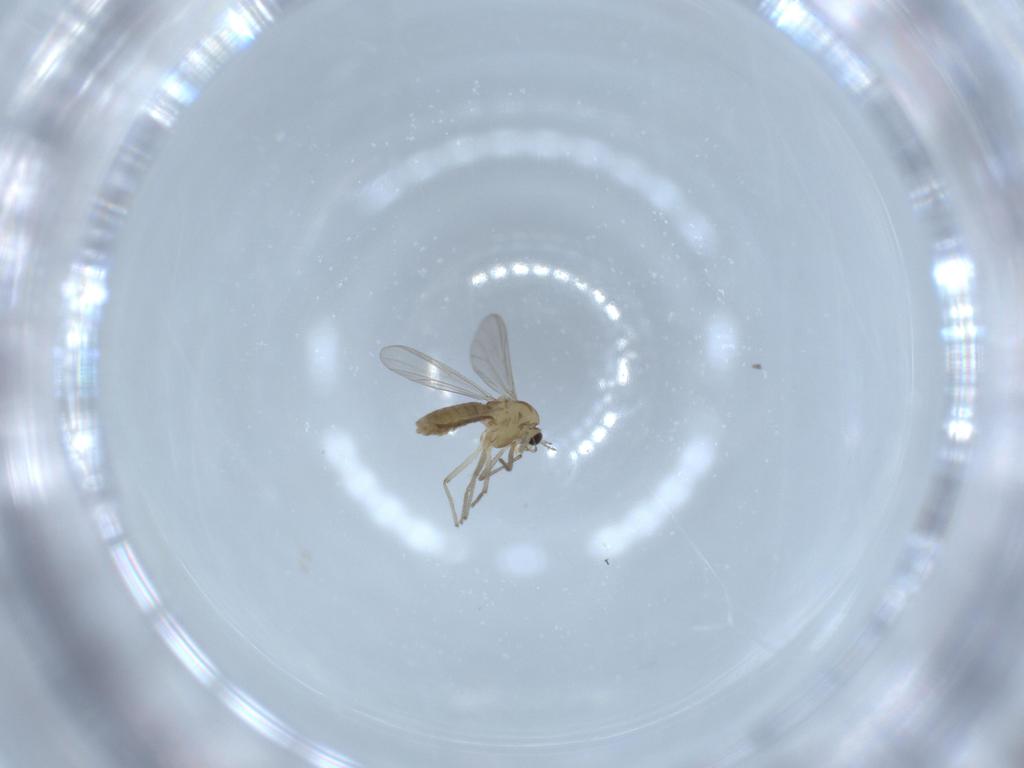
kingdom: Animalia
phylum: Arthropoda
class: Insecta
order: Diptera
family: Chironomidae
